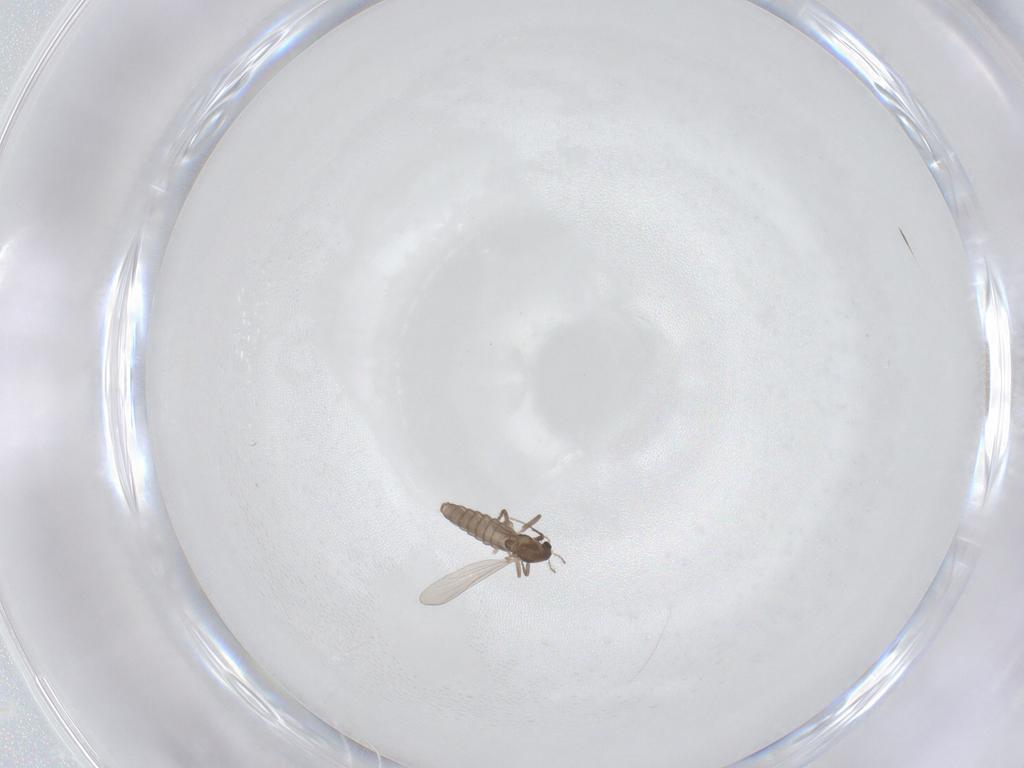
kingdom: Animalia
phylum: Arthropoda
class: Insecta
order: Diptera
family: Chironomidae
